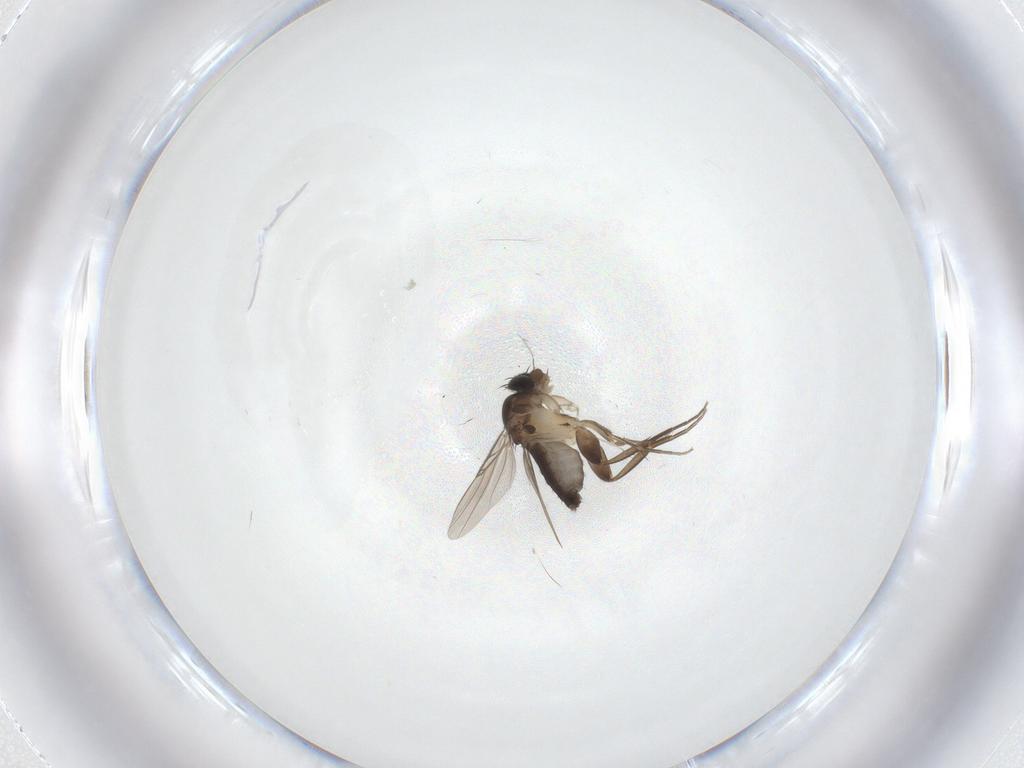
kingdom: Animalia
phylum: Arthropoda
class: Insecta
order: Diptera
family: Phoridae
